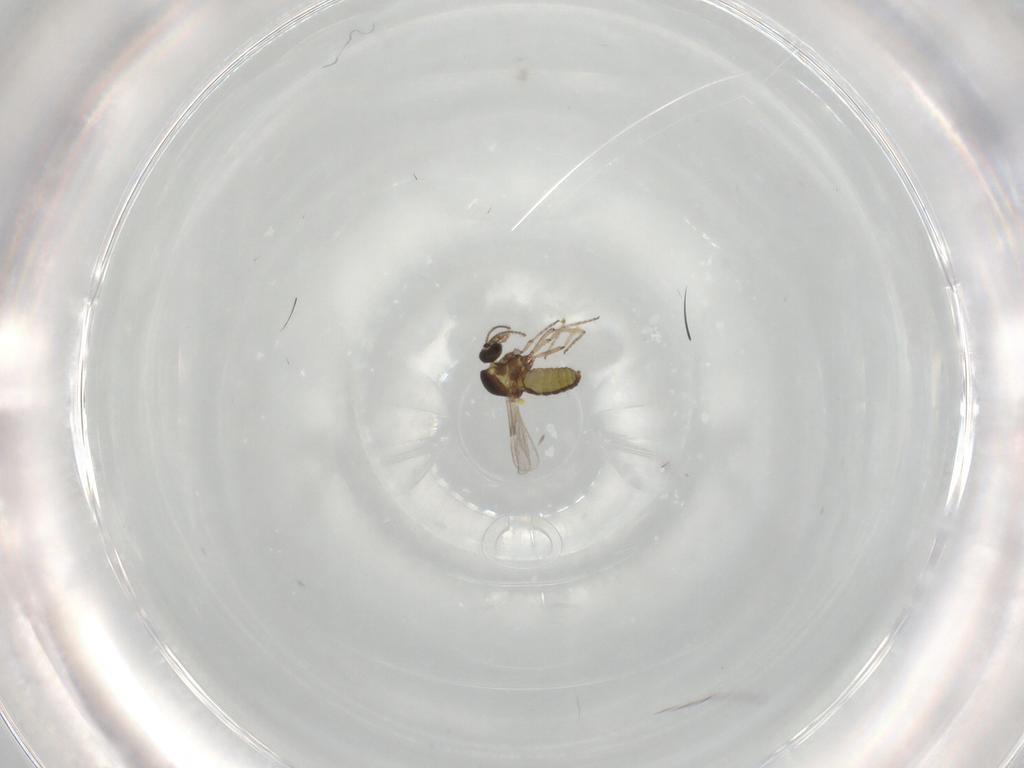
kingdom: Animalia
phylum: Arthropoda
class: Insecta
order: Diptera
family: Ceratopogonidae
